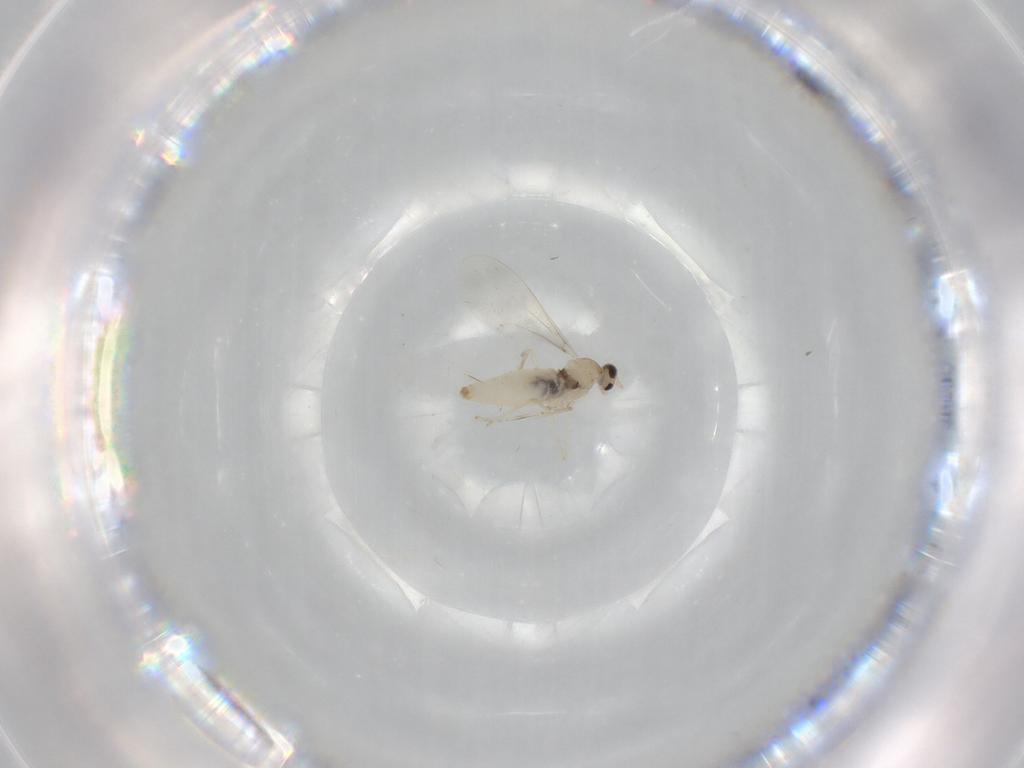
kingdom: Animalia
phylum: Arthropoda
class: Insecta
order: Diptera
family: Cecidomyiidae
